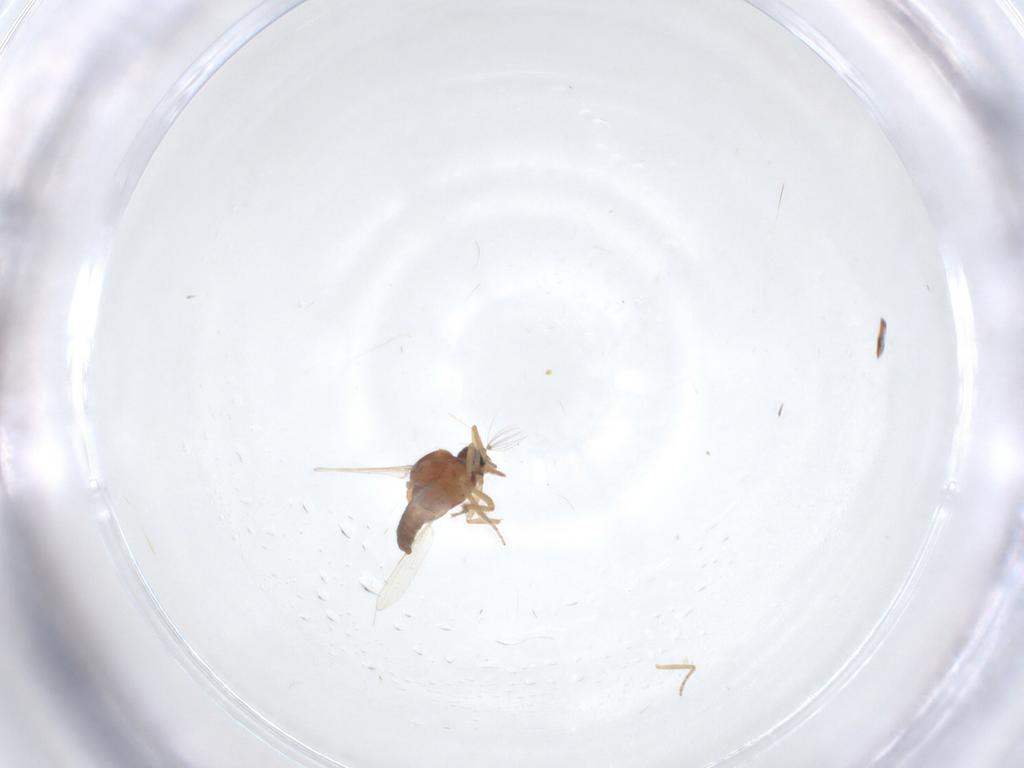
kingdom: Animalia
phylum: Arthropoda
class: Insecta
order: Diptera
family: Ceratopogonidae
